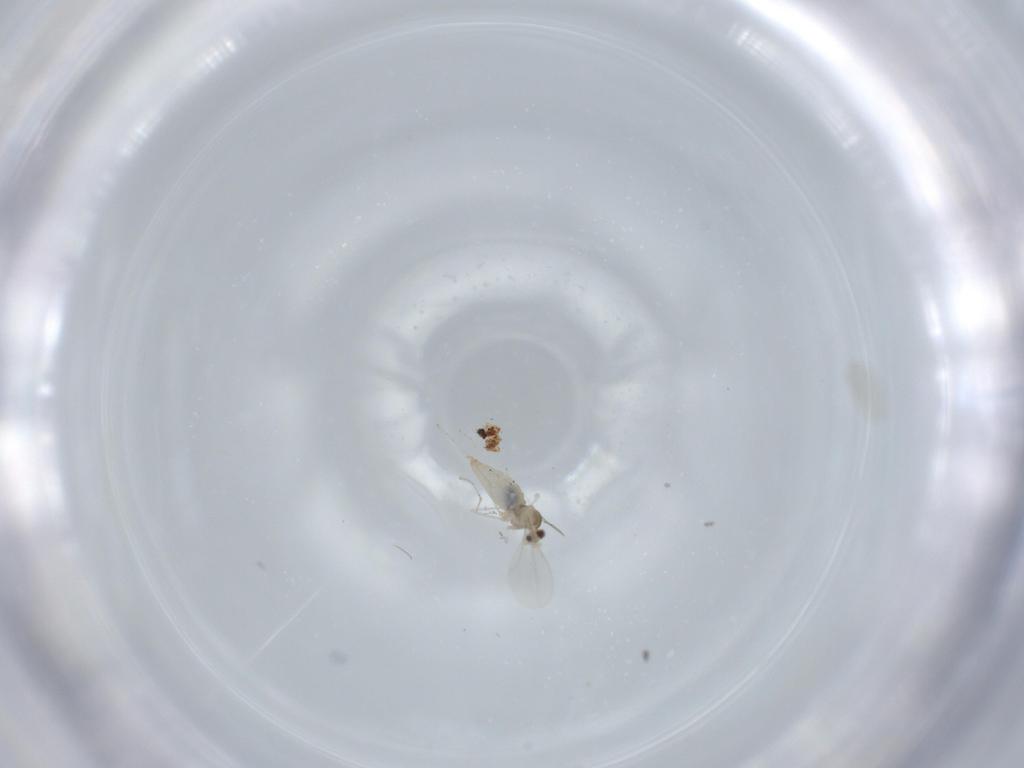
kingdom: Animalia
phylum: Arthropoda
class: Insecta
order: Diptera
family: Cecidomyiidae
